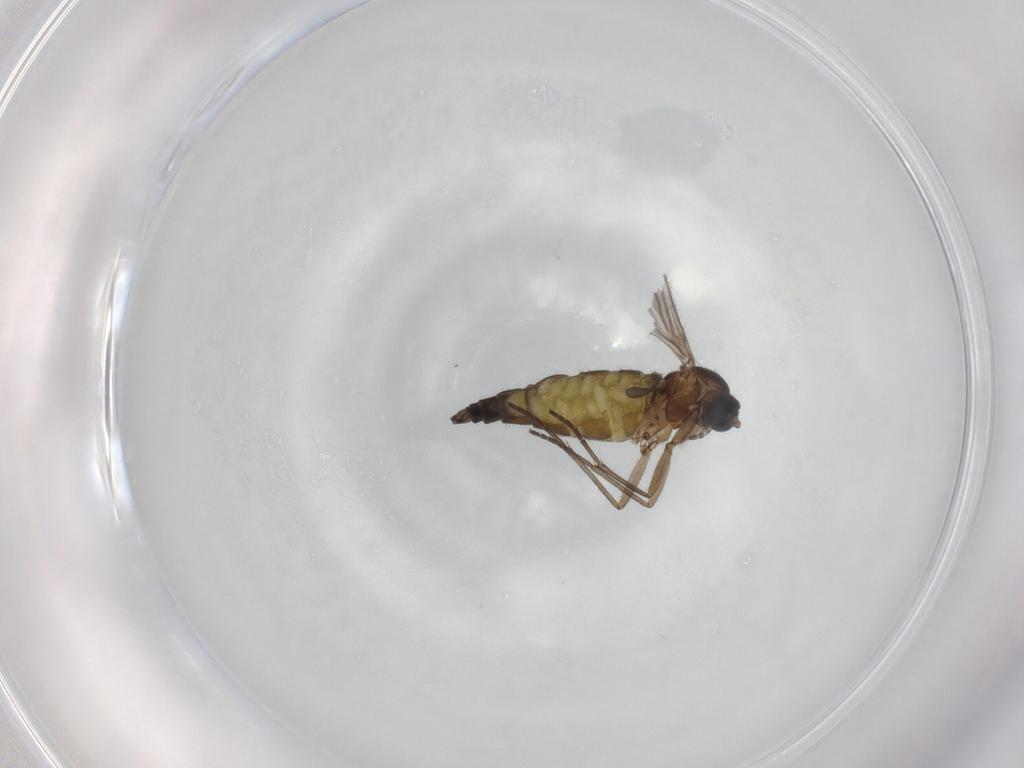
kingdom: Animalia
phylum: Arthropoda
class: Insecta
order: Diptera
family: Sciaridae
